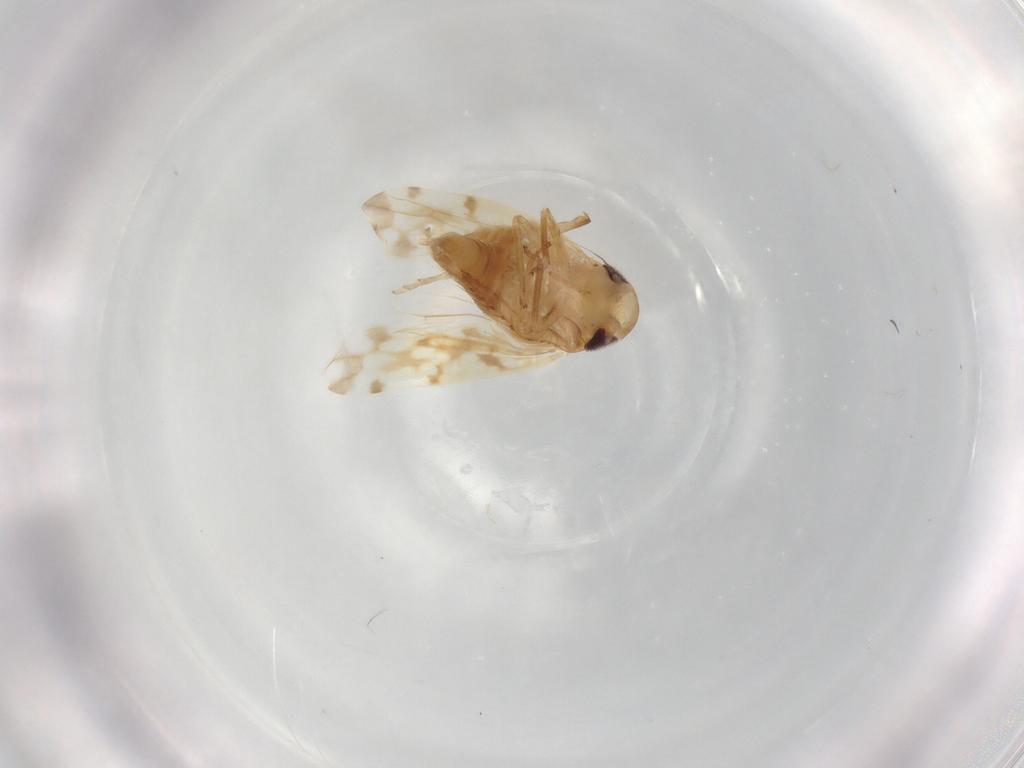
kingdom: Animalia
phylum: Arthropoda
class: Insecta
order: Hemiptera
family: Cicadellidae
